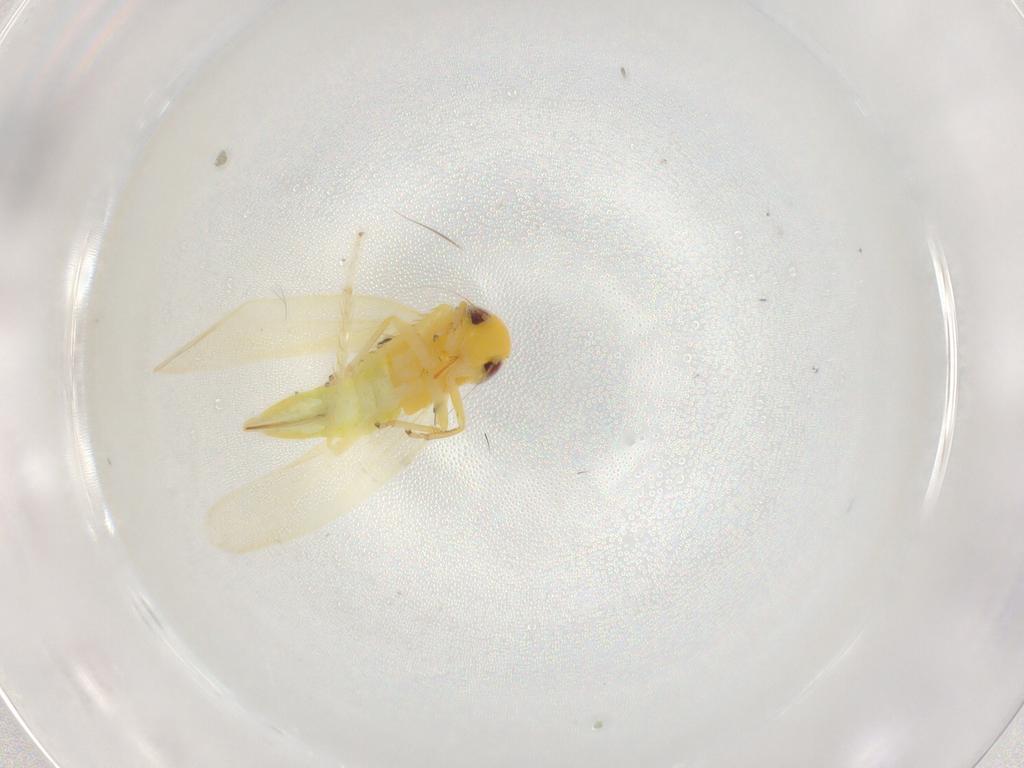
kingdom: Animalia
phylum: Arthropoda
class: Insecta
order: Hemiptera
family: Cicadellidae
